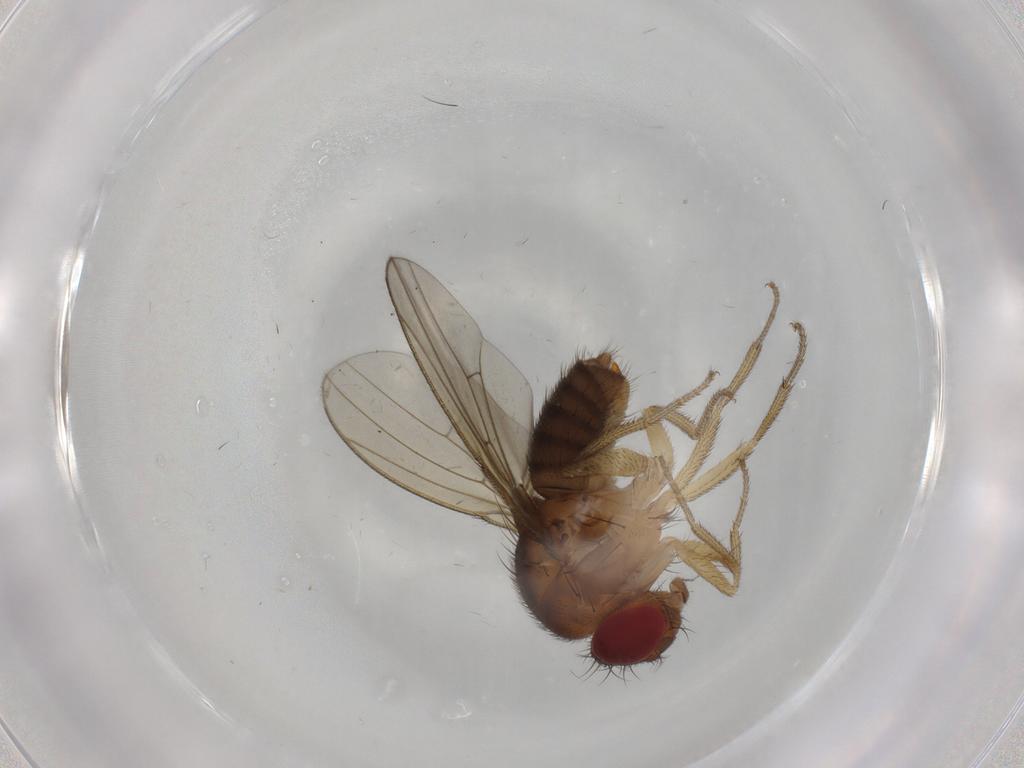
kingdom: Animalia
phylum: Arthropoda
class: Insecta
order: Diptera
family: Drosophilidae
